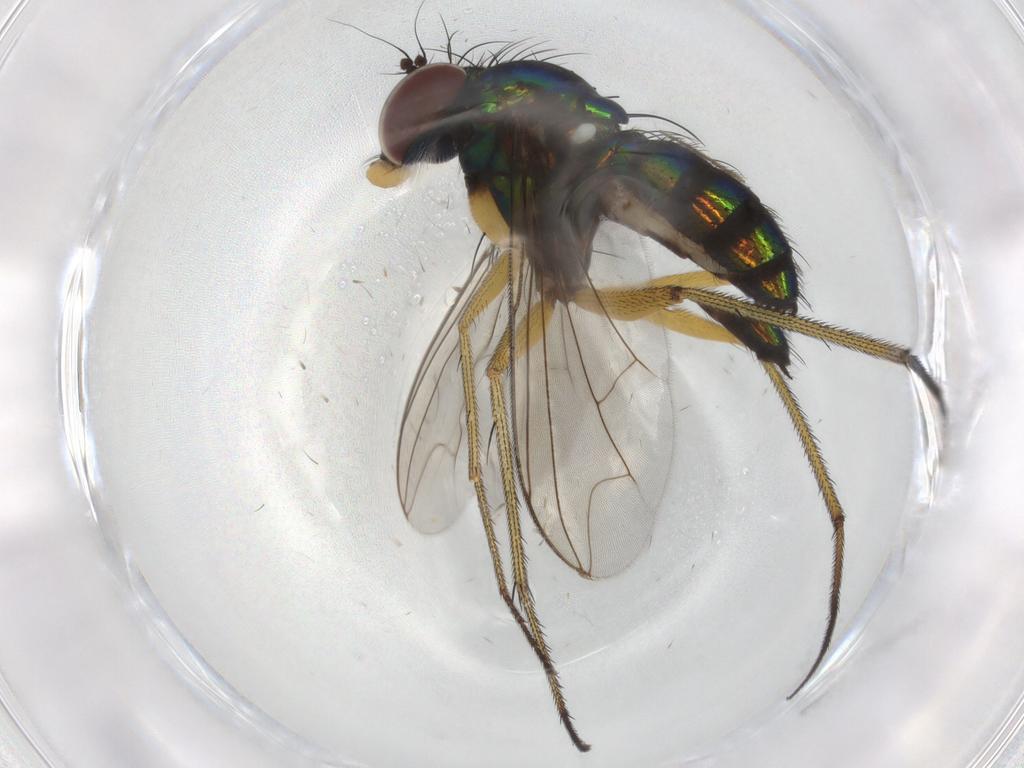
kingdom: Animalia
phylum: Arthropoda
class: Insecta
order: Diptera
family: Dolichopodidae
